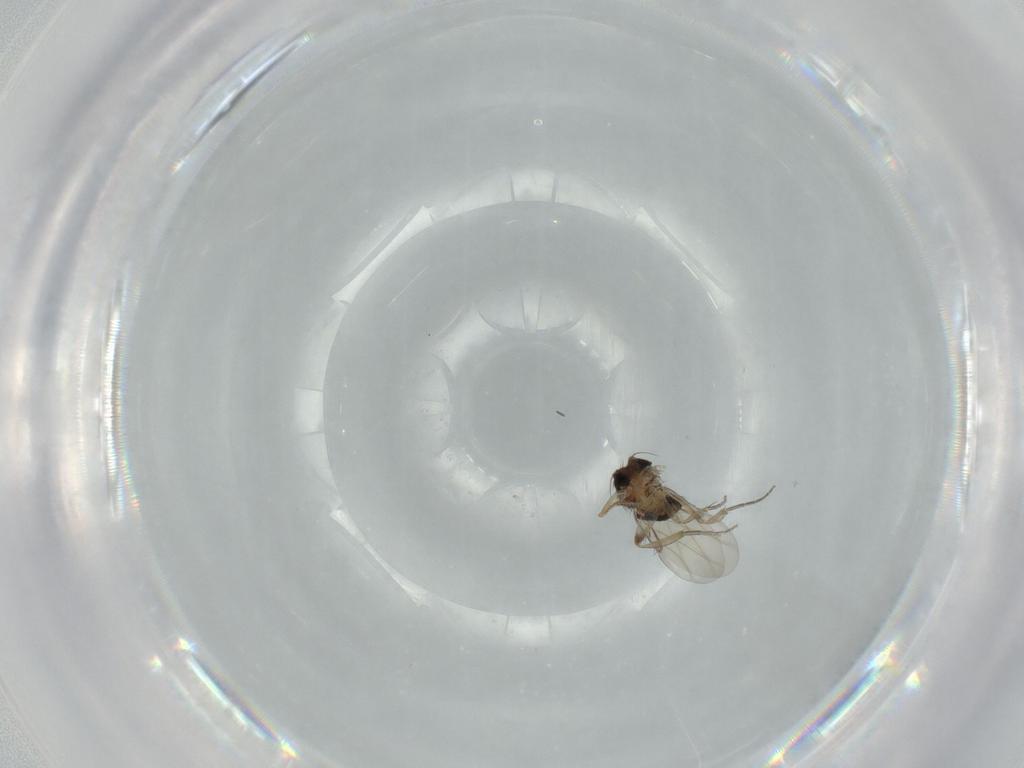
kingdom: Animalia
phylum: Arthropoda
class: Insecta
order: Diptera
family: Phoridae
